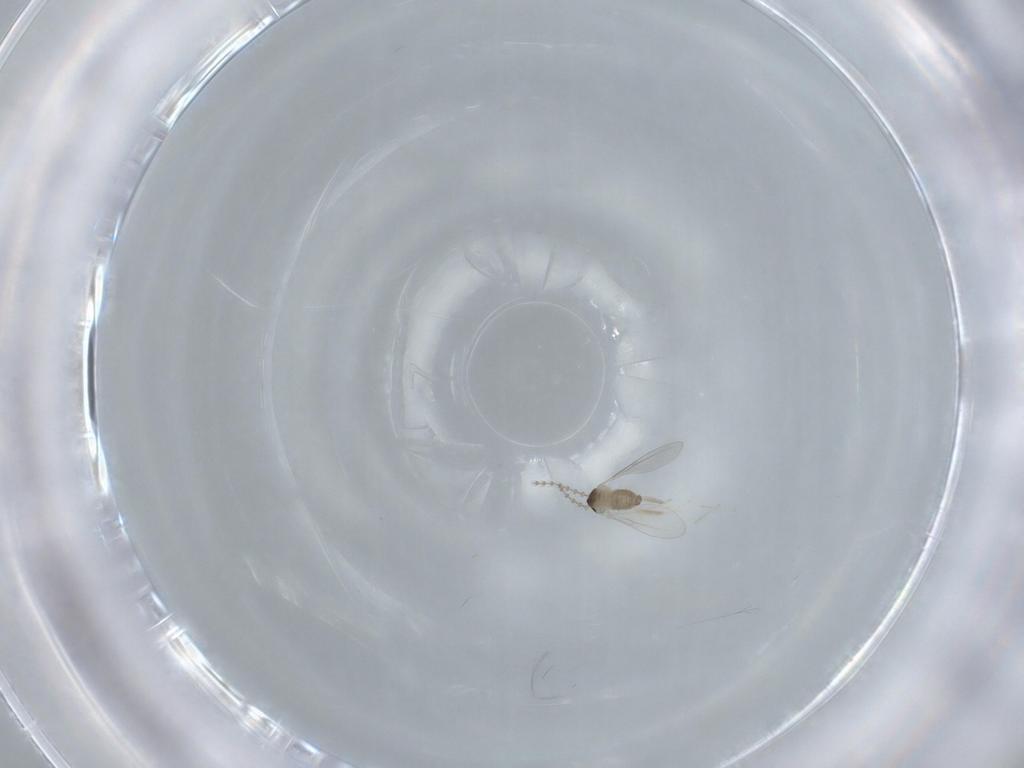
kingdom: Animalia
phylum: Arthropoda
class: Insecta
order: Diptera
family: Cecidomyiidae
